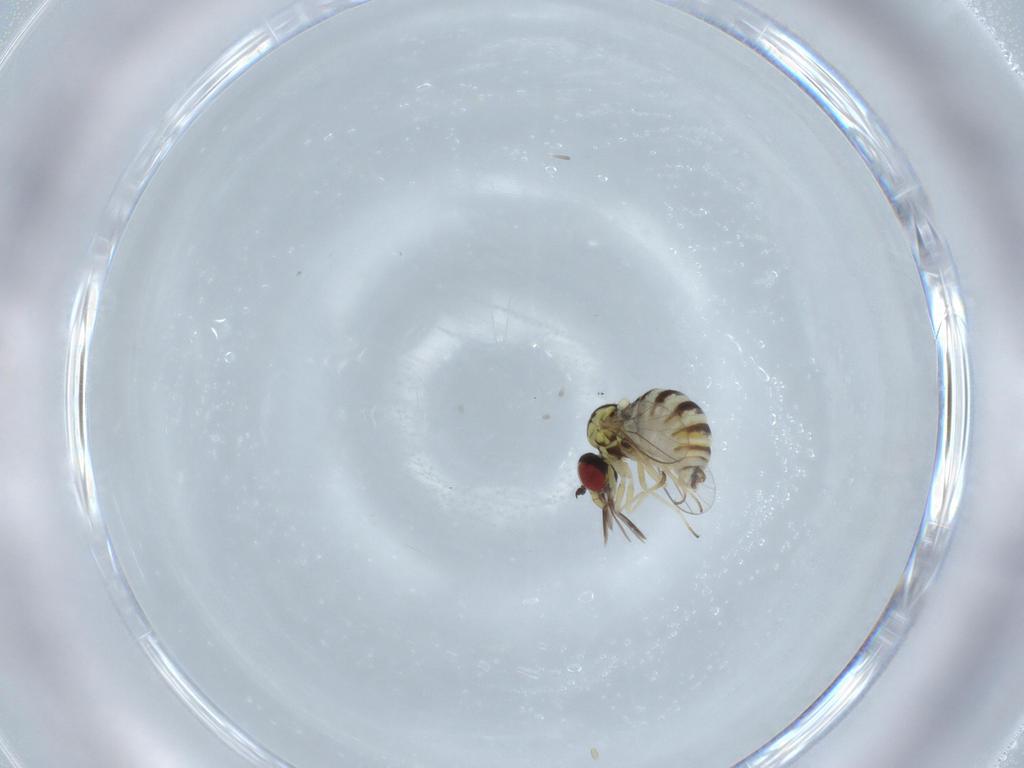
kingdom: Animalia
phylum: Arthropoda
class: Insecta
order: Diptera
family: Bombyliidae
